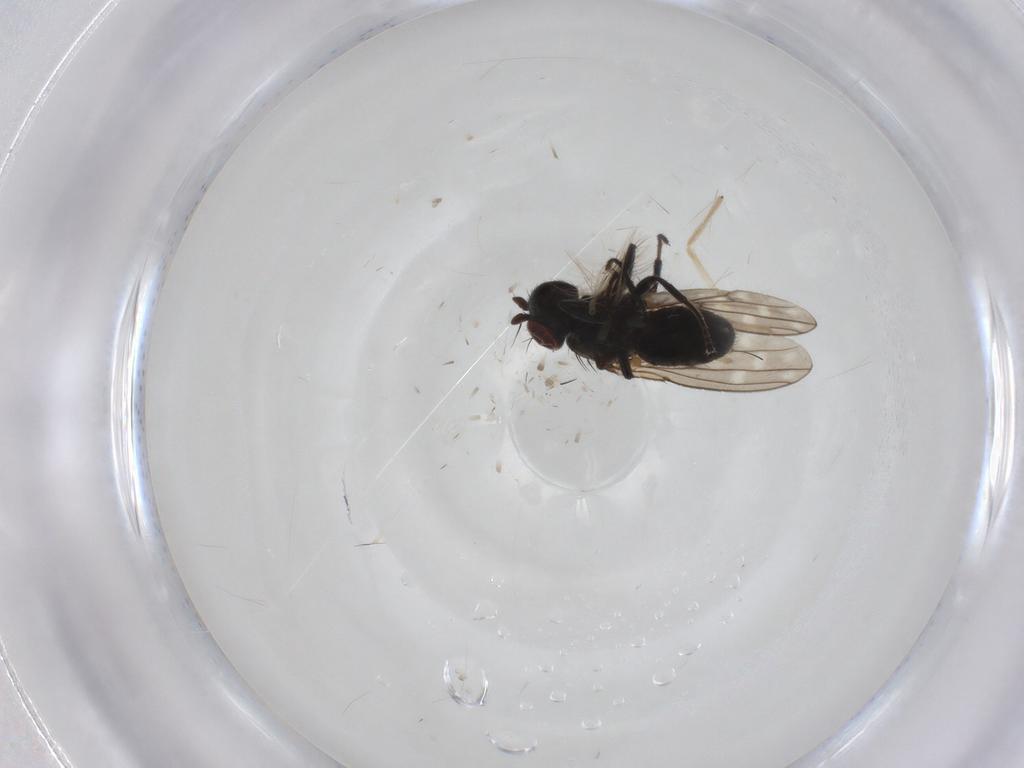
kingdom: Animalia
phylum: Arthropoda
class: Insecta
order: Diptera
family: Ephydridae
